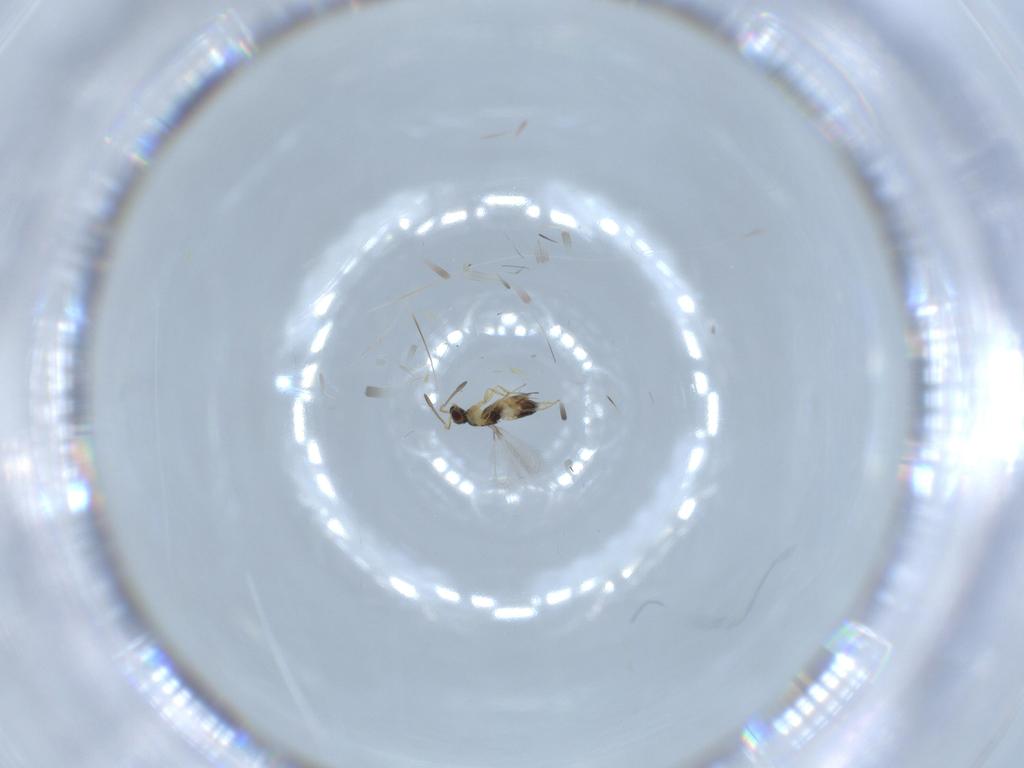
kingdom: Animalia
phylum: Arthropoda
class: Insecta
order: Hymenoptera
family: Mymaridae
